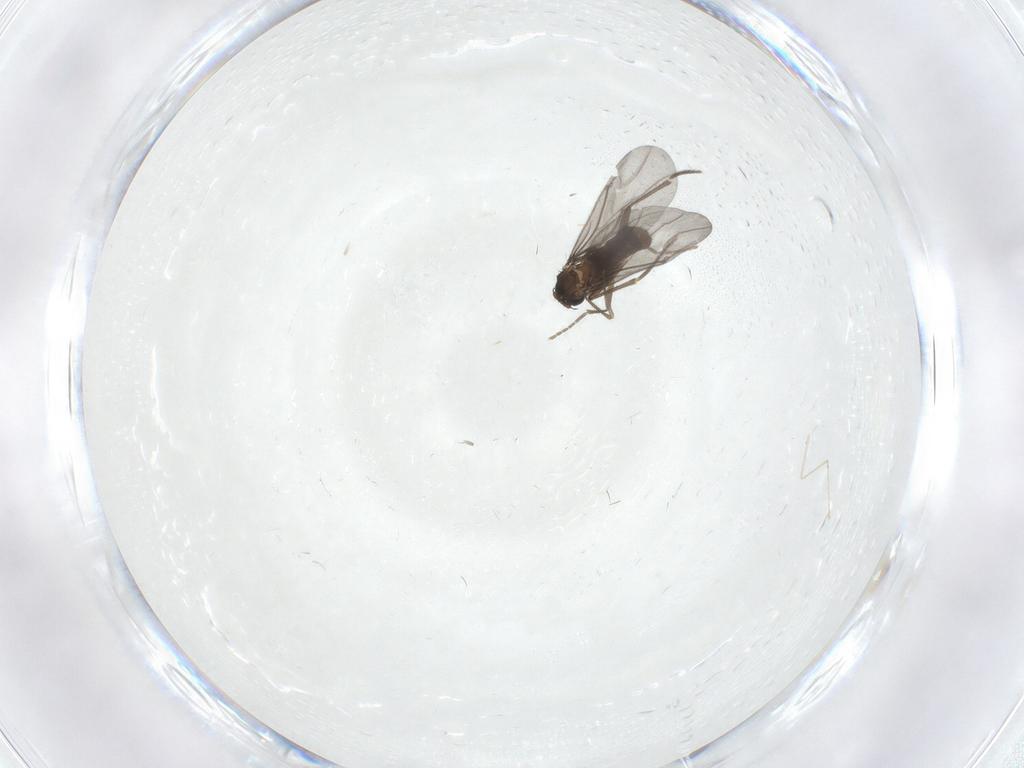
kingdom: Animalia
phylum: Arthropoda
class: Insecta
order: Diptera
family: Phoridae
